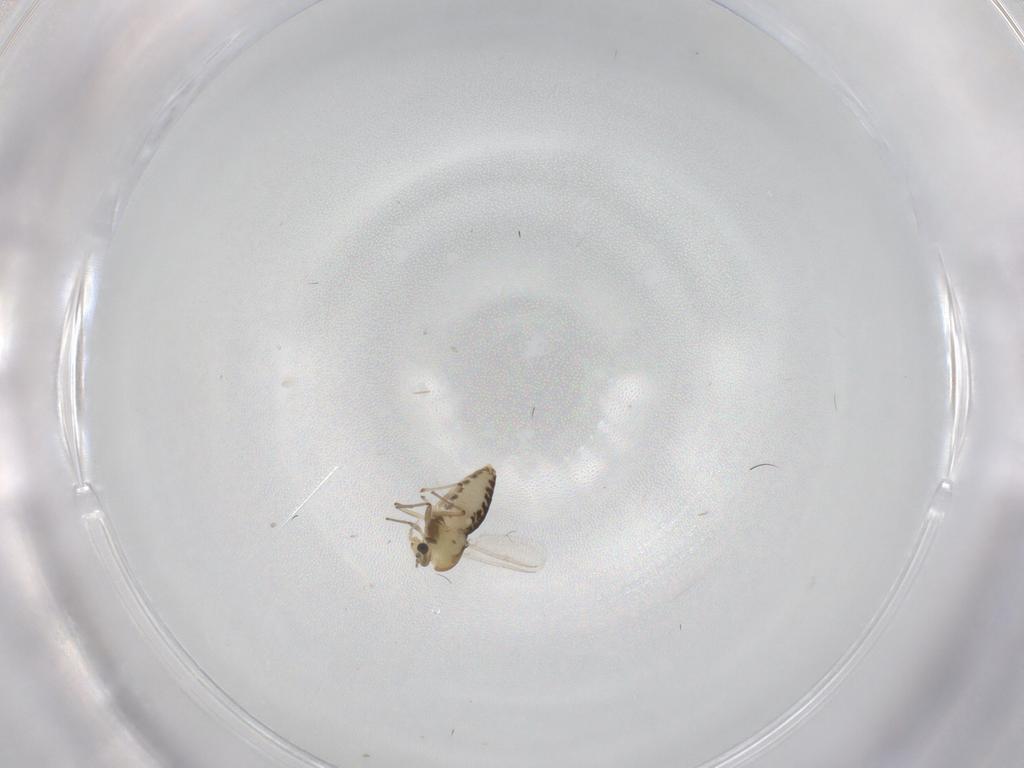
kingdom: Animalia
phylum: Arthropoda
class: Insecta
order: Diptera
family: Chironomidae
